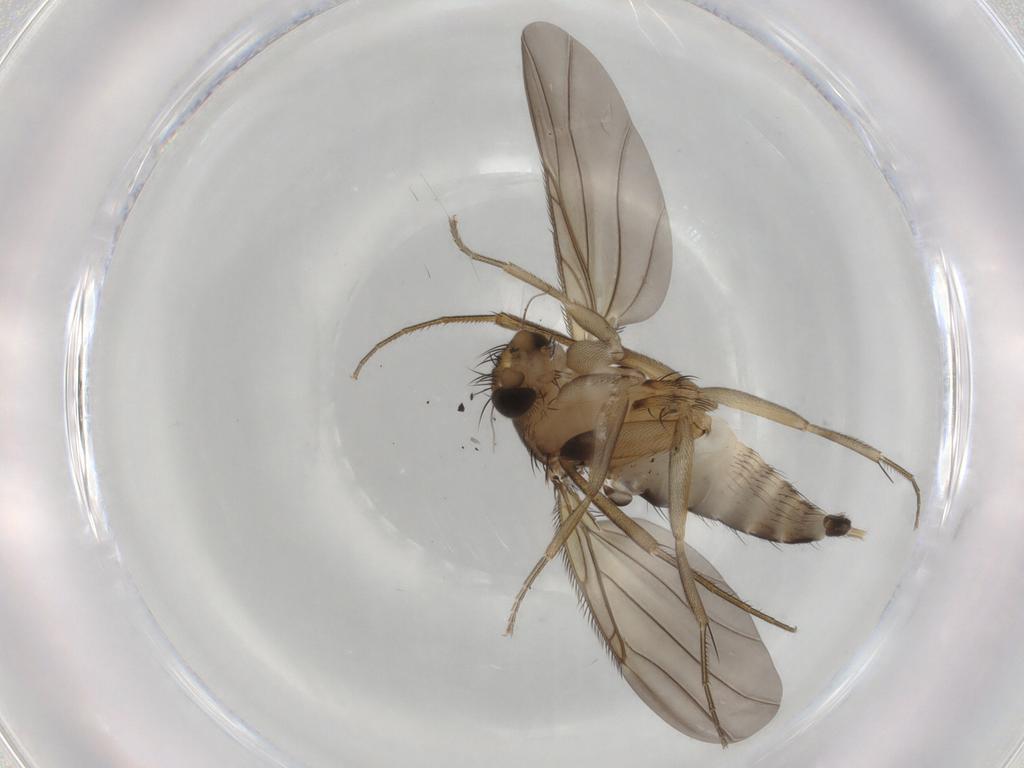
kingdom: Animalia
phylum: Arthropoda
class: Insecta
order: Diptera
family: Phoridae
